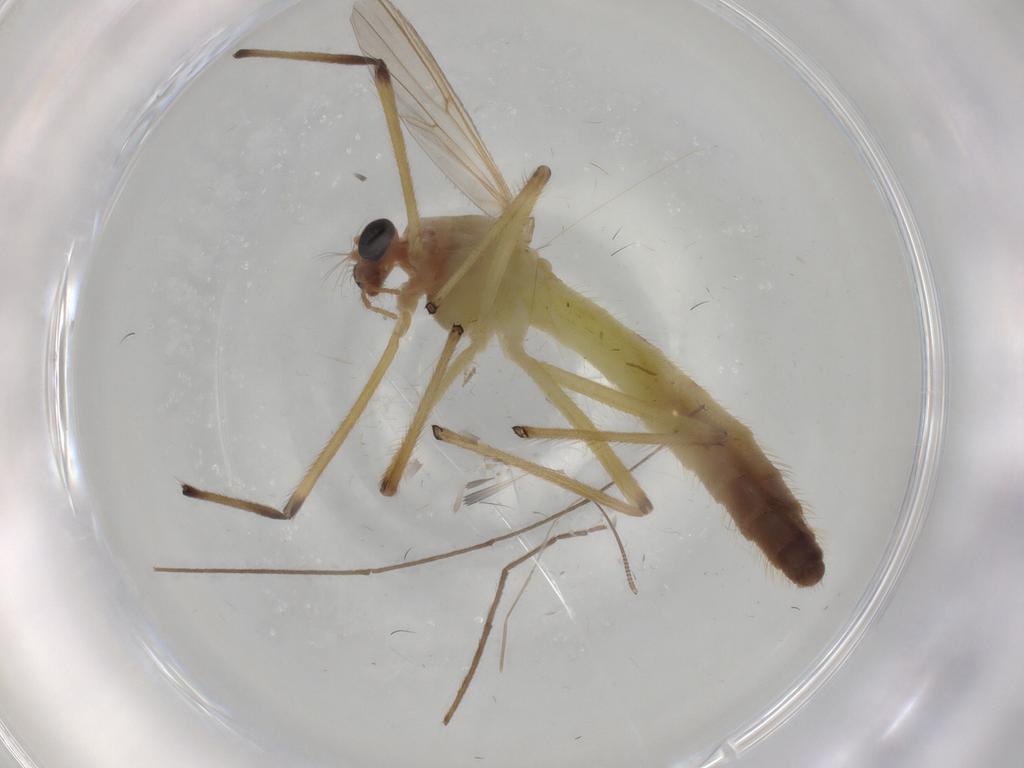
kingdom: Animalia
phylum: Arthropoda
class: Insecta
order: Diptera
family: Chironomidae
